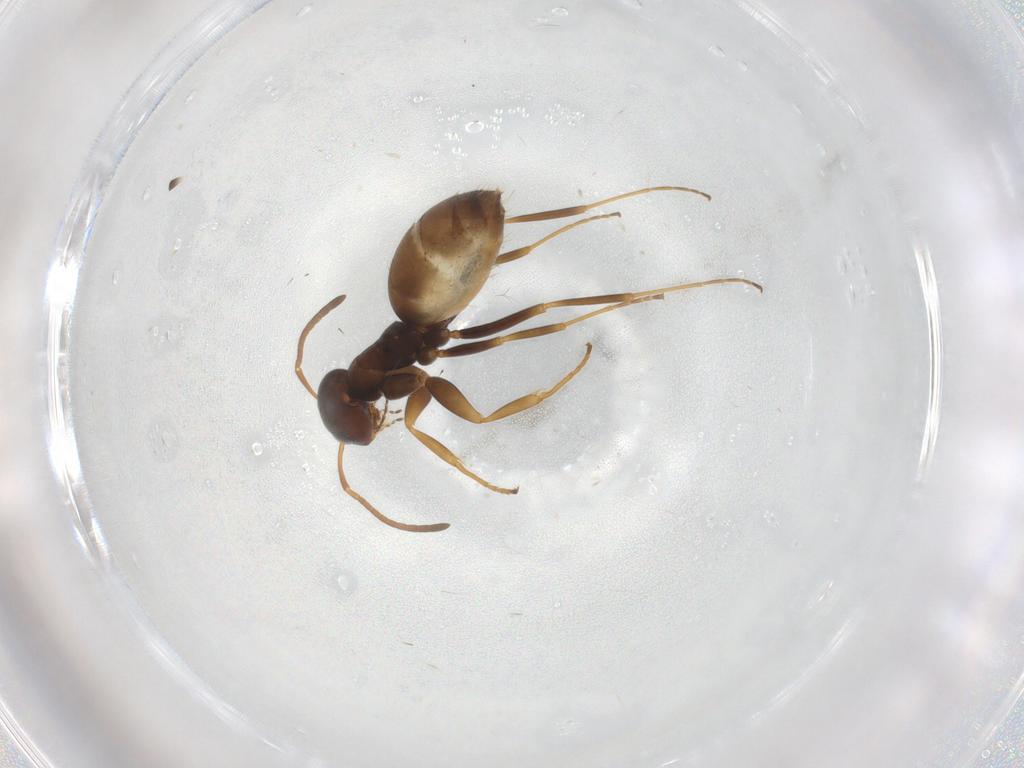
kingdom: Animalia
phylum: Arthropoda
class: Insecta
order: Hymenoptera
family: Formicidae
